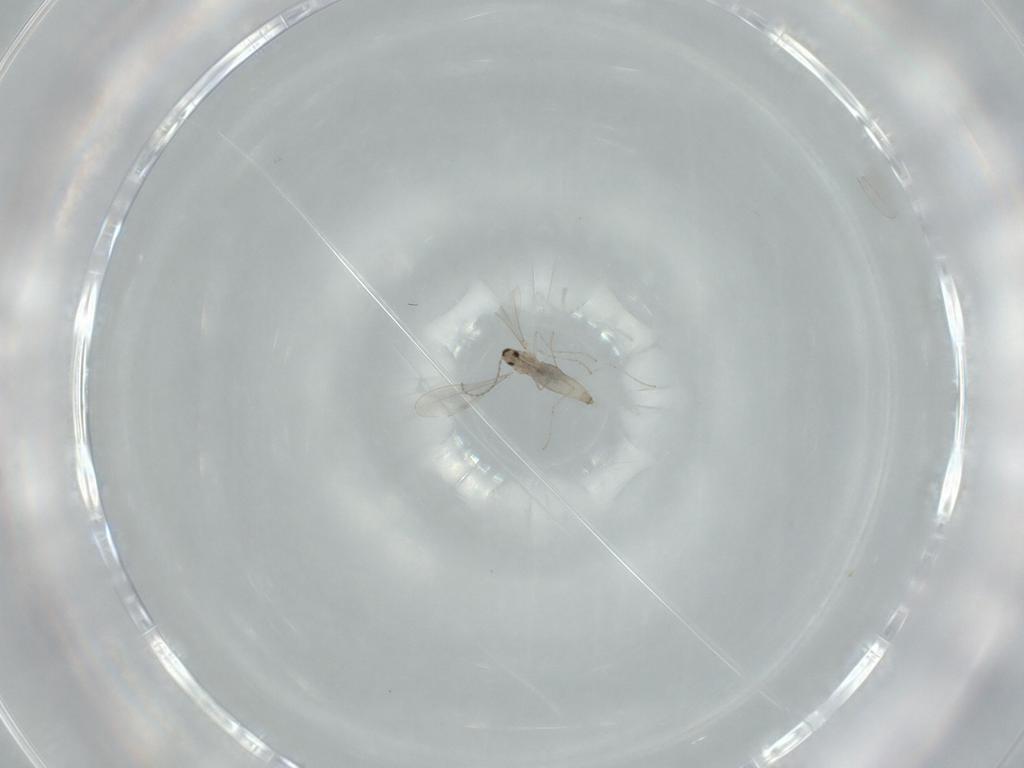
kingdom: Animalia
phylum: Arthropoda
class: Insecta
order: Diptera
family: Cecidomyiidae
